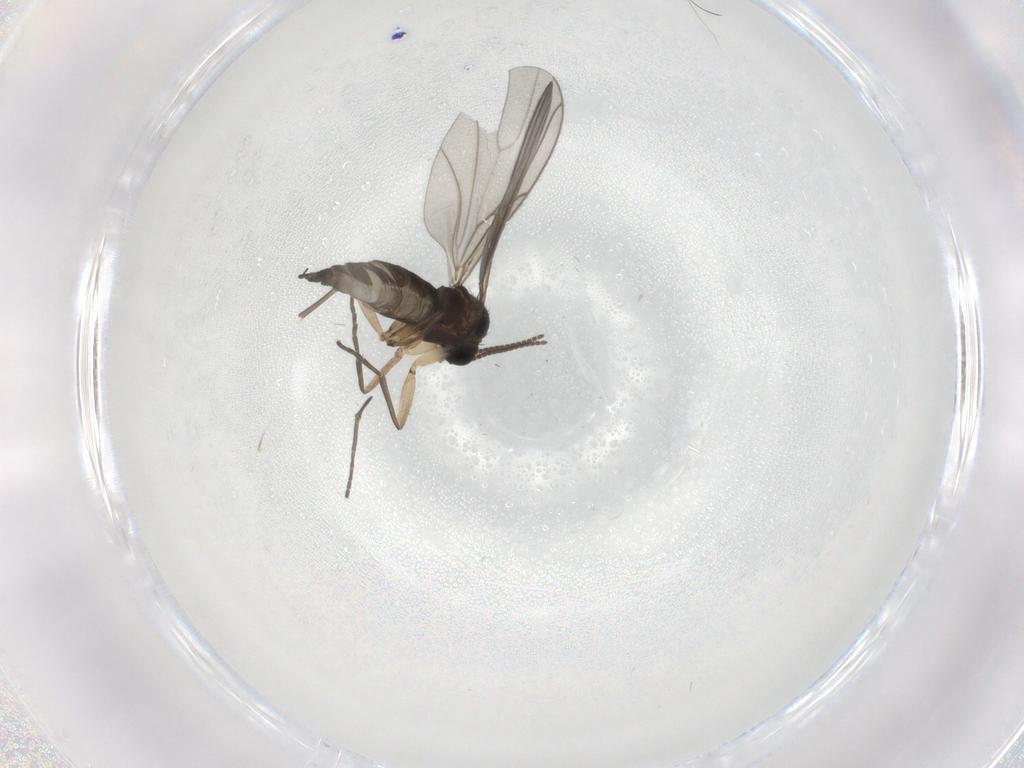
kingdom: Animalia
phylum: Arthropoda
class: Insecta
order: Diptera
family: Sciaridae
